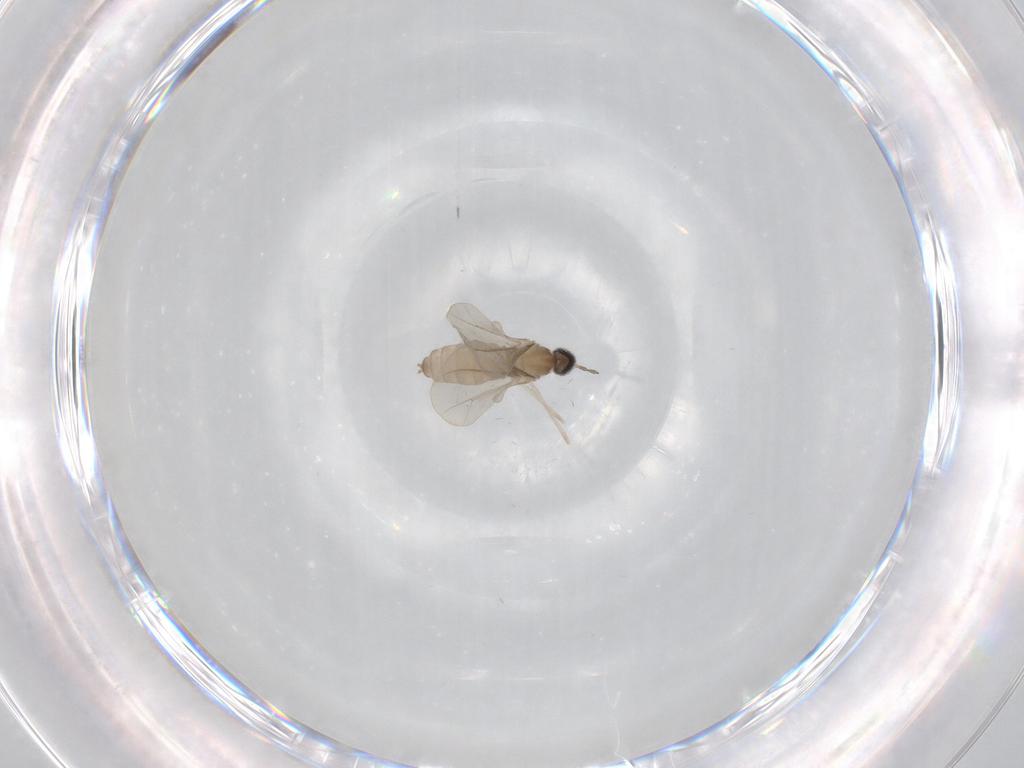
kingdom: Animalia
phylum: Arthropoda
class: Insecta
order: Diptera
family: Cecidomyiidae
